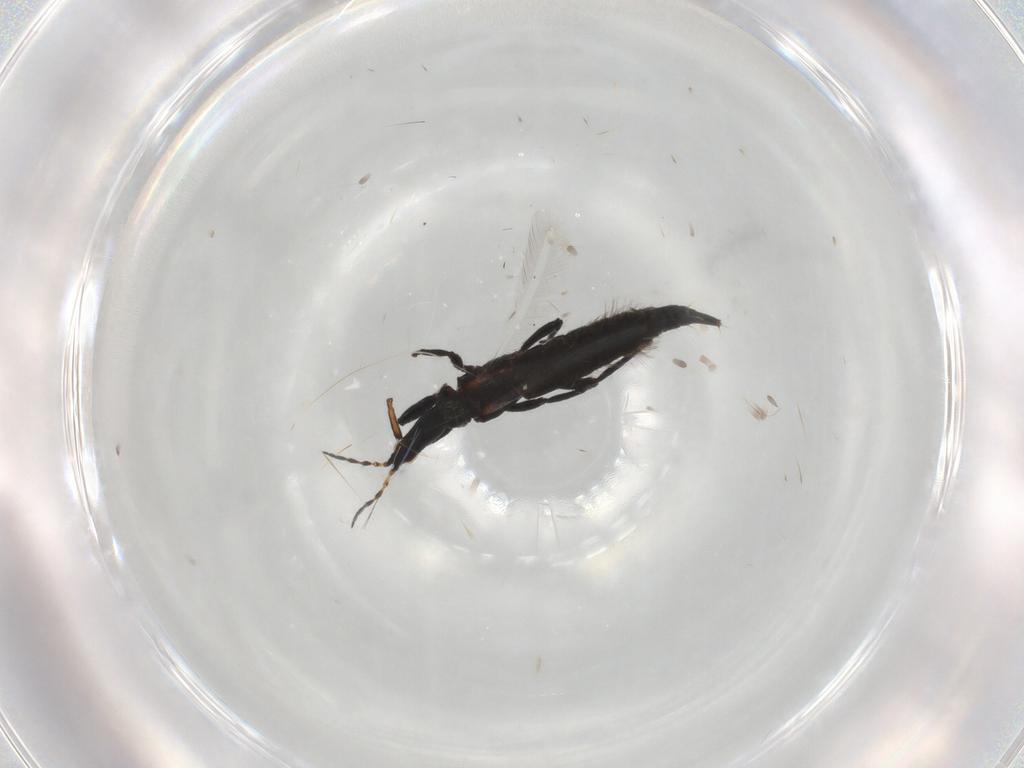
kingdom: Animalia
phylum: Arthropoda
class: Insecta
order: Thysanoptera
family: Phlaeothripidae
